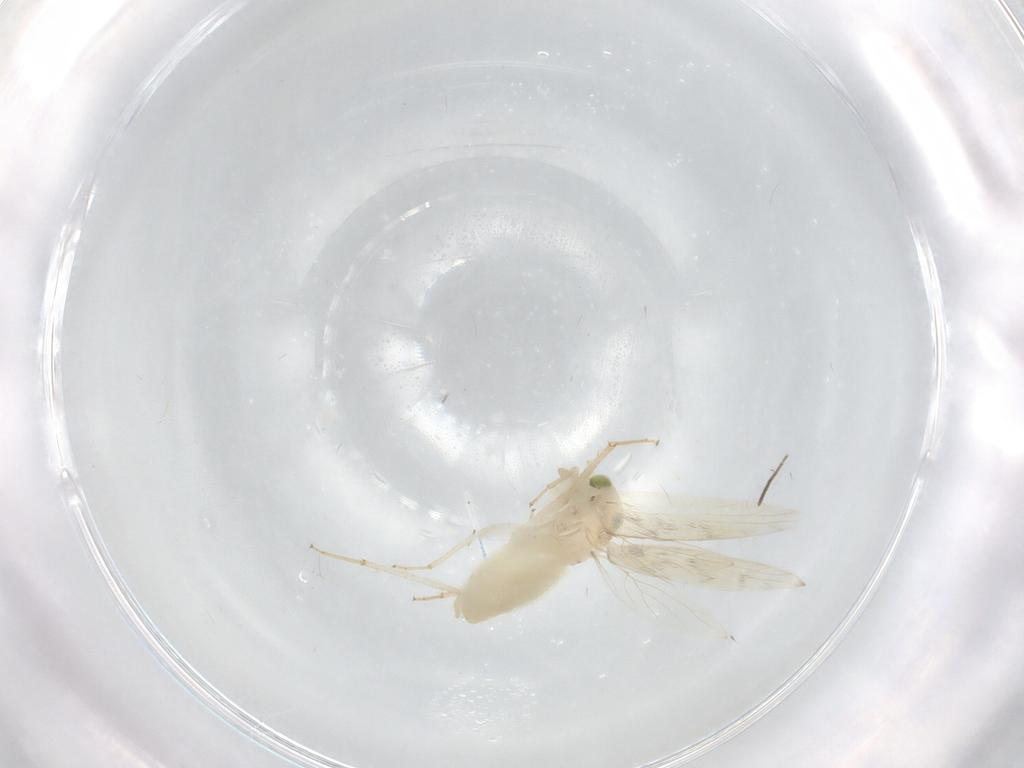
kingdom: Animalia
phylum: Arthropoda
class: Insecta
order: Psocodea
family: Lepidopsocidae
